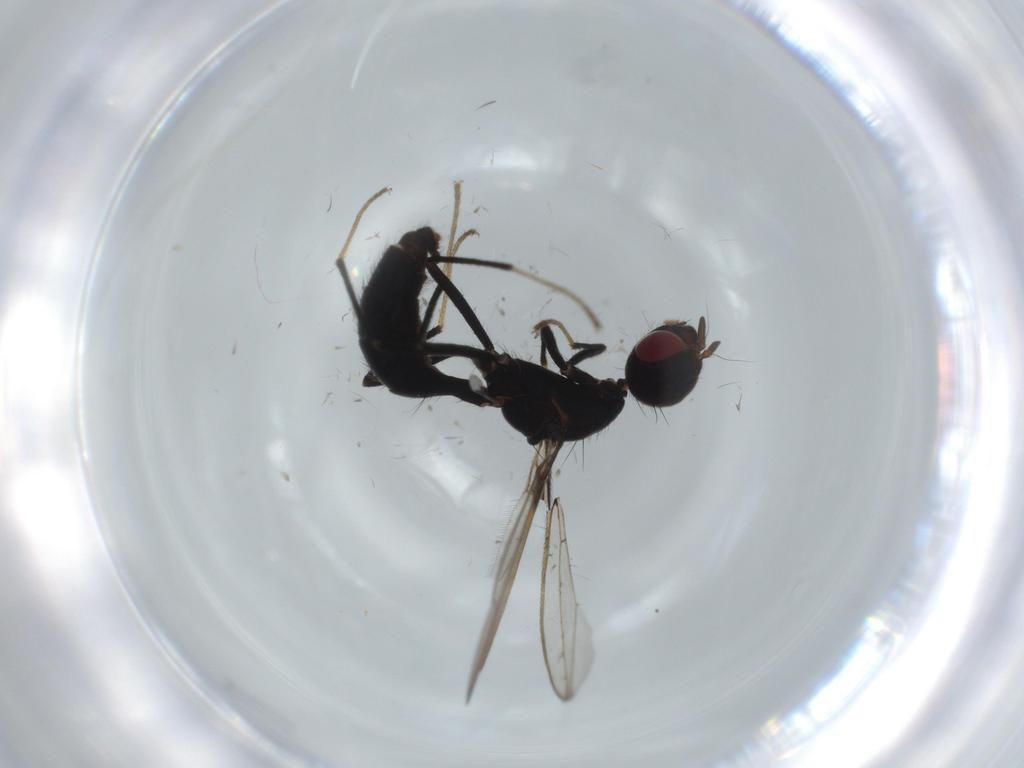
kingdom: Animalia
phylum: Arthropoda
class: Insecta
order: Diptera
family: Richardiidae
